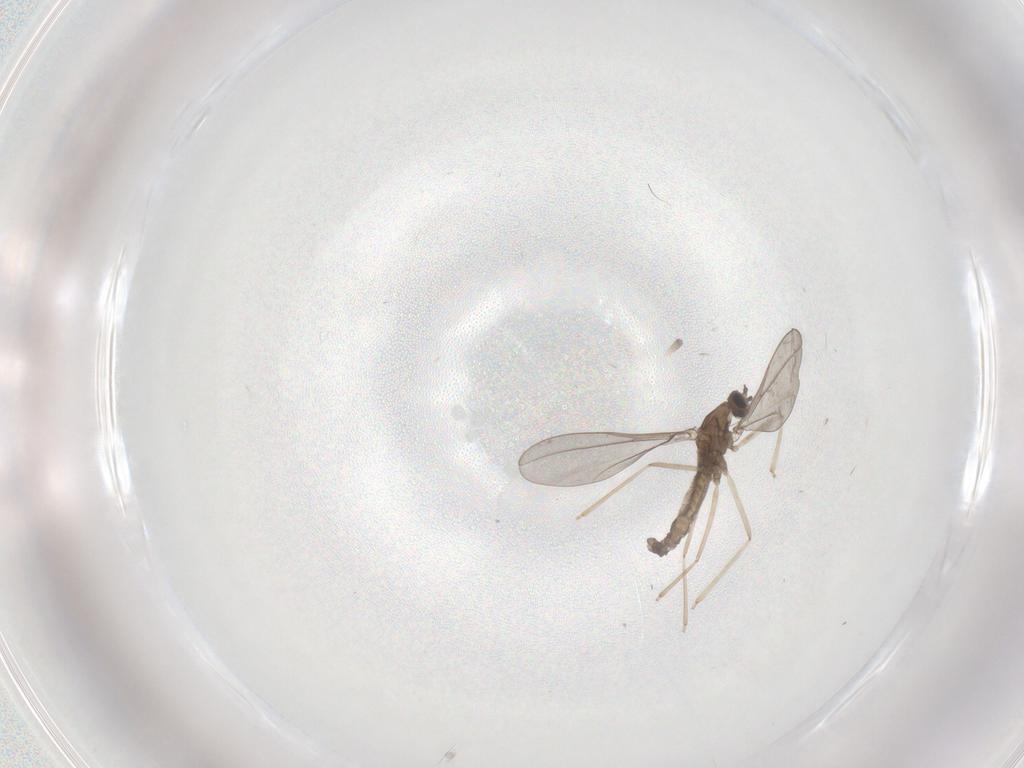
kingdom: Animalia
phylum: Arthropoda
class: Insecta
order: Diptera
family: Cecidomyiidae
